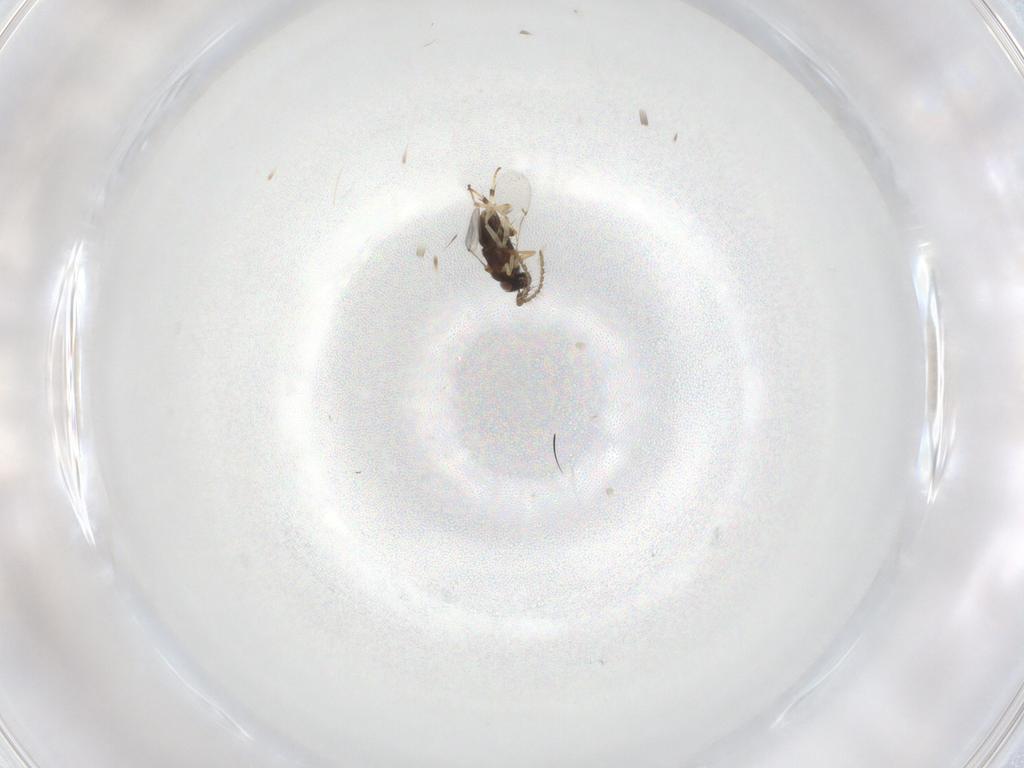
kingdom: Animalia
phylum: Arthropoda
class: Insecta
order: Hymenoptera
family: Encyrtidae
